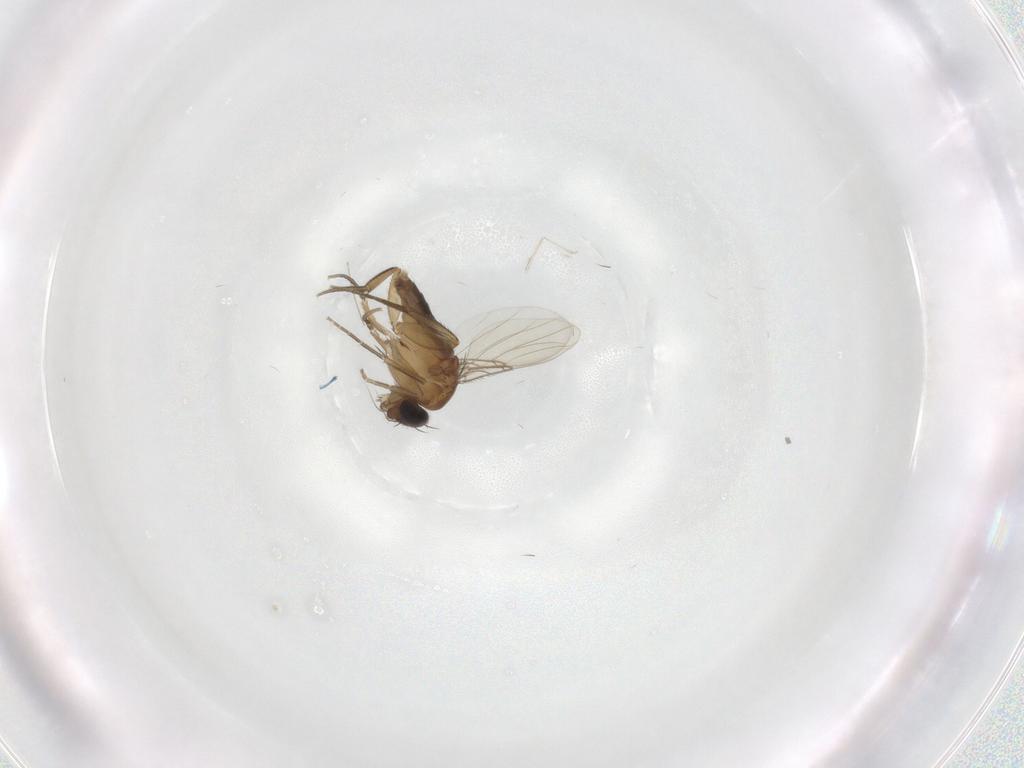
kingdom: Animalia
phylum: Arthropoda
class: Insecta
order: Diptera
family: Phoridae
